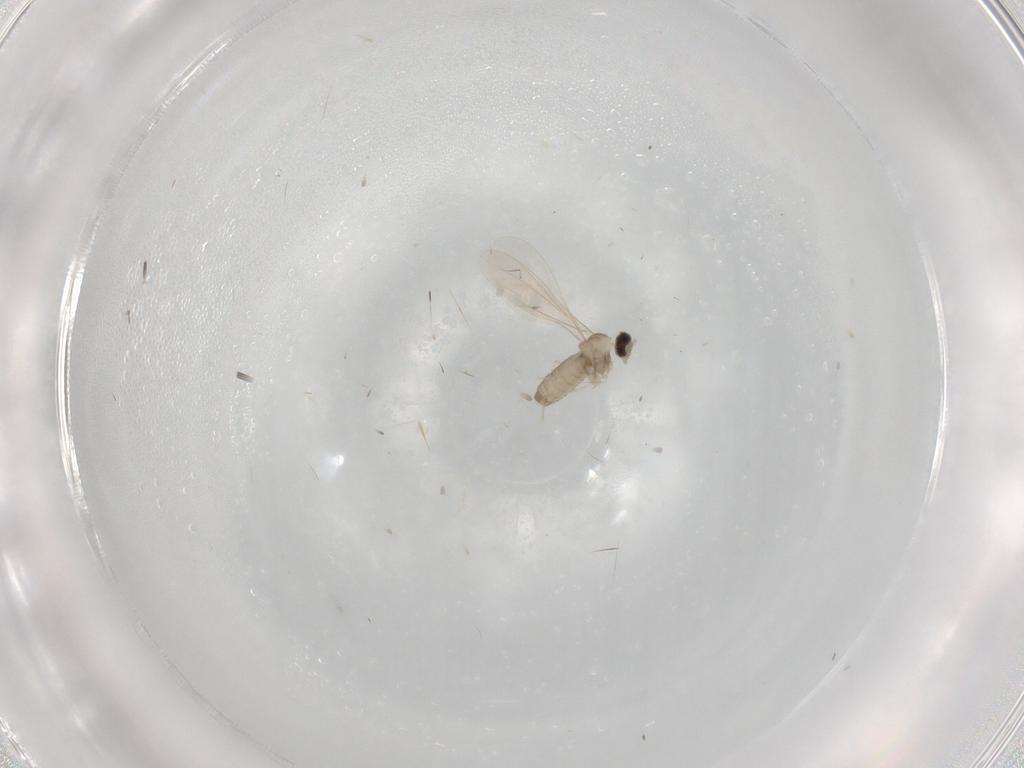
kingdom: Animalia
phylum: Arthropoda
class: Insecta
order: Diptera
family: Cecidomyiidae
